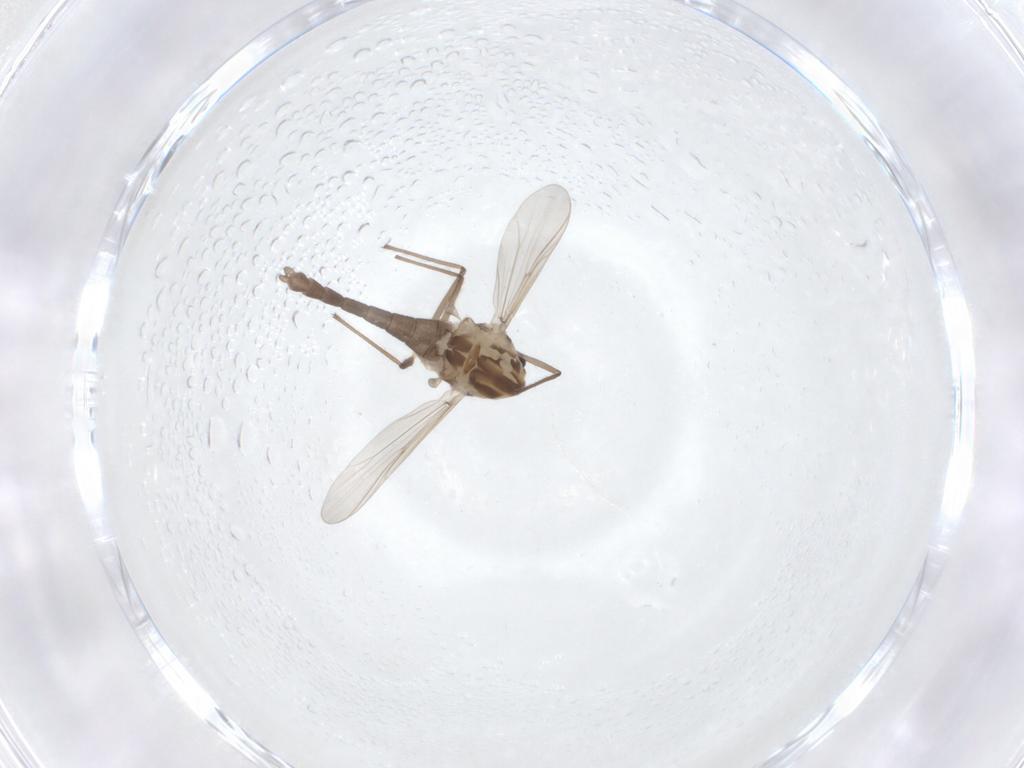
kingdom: Animalia
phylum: Arthropoda
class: Insecta
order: Diptera
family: Chironomidae
